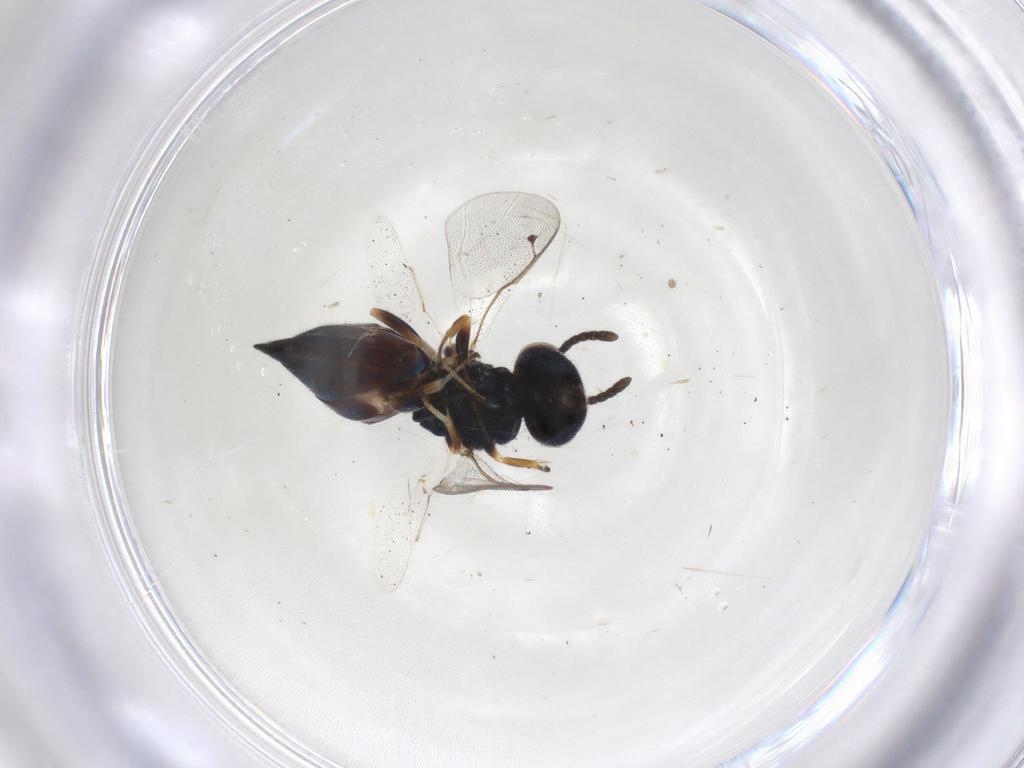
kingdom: Animalia
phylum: Arthropoda
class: Insecta
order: Hymenoptera
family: Pteromalidae
